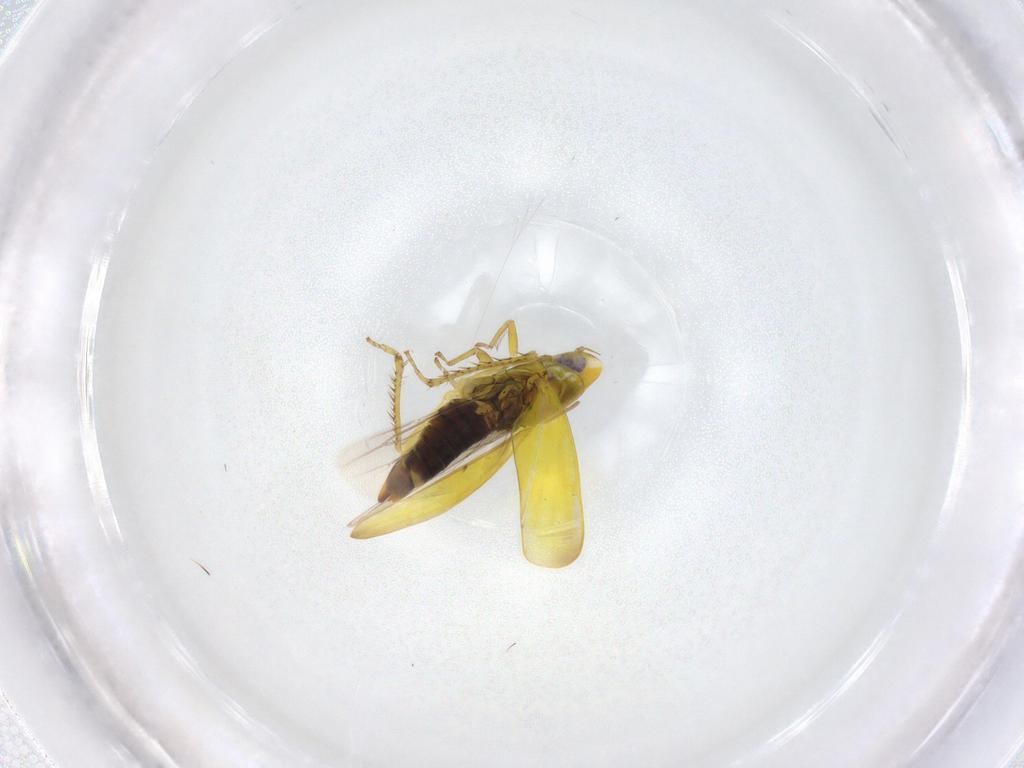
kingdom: Animalia
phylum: Arthropoda
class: Insecta
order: Hemiptera
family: Cicadellidae
